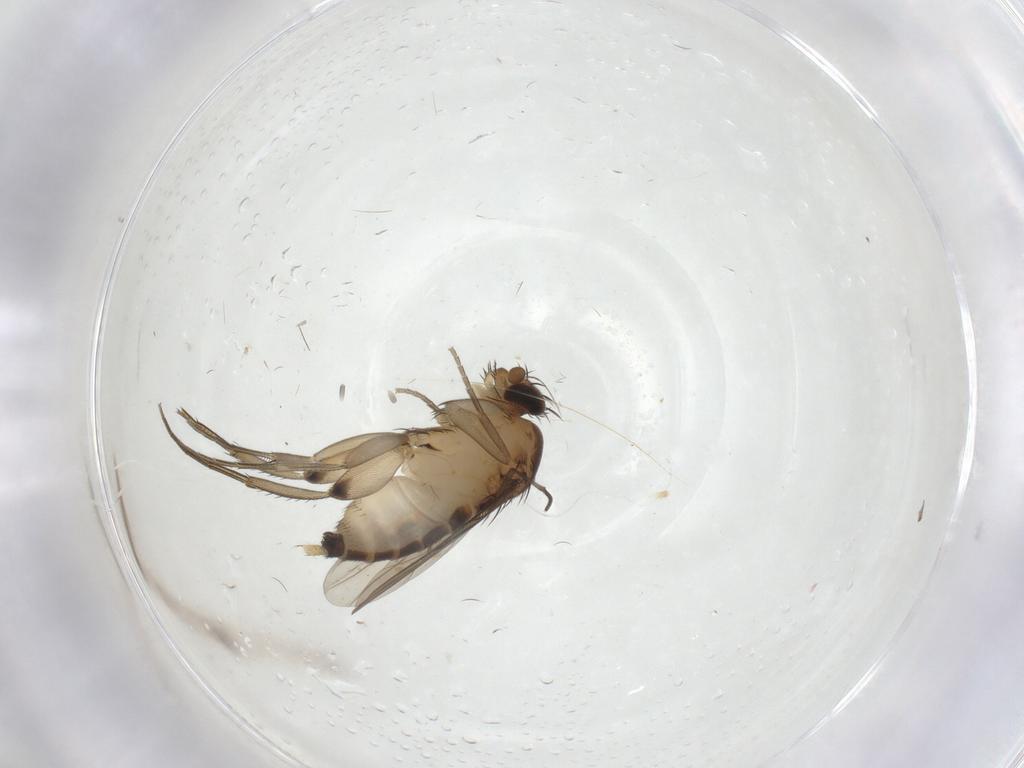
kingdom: Animalia
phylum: Arthropoda
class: Insecta
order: Diptera
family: Chironomidae
